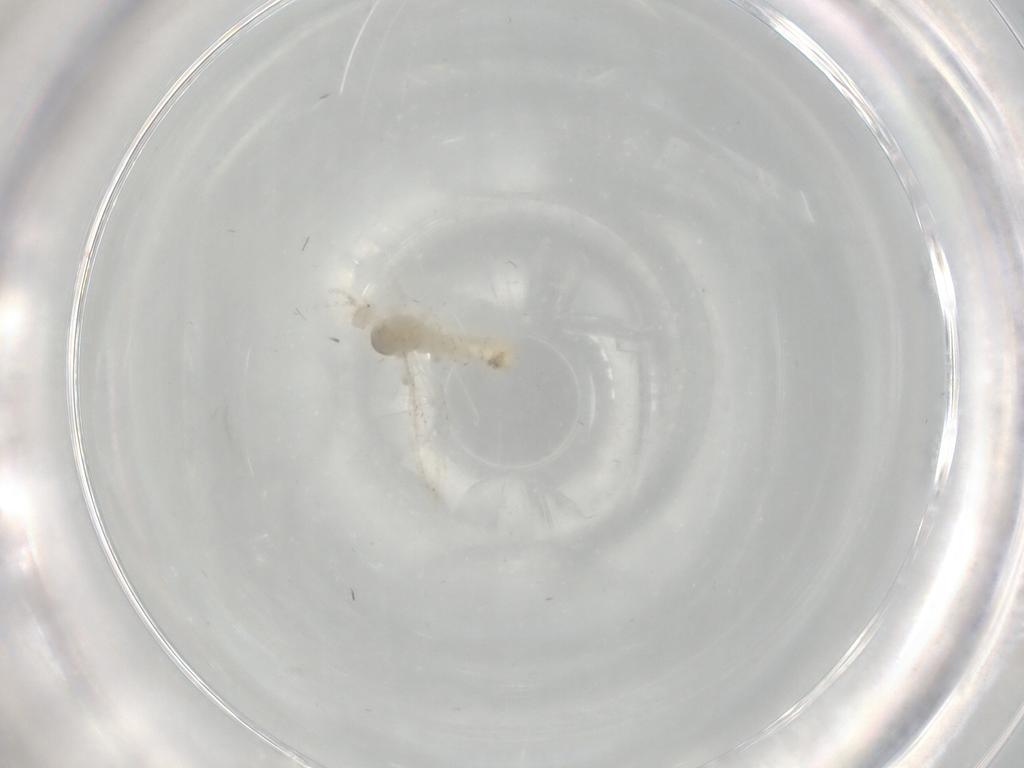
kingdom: Animalia
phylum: Arthropoda
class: Insecta
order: Diptera
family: Cecidomyiidae
